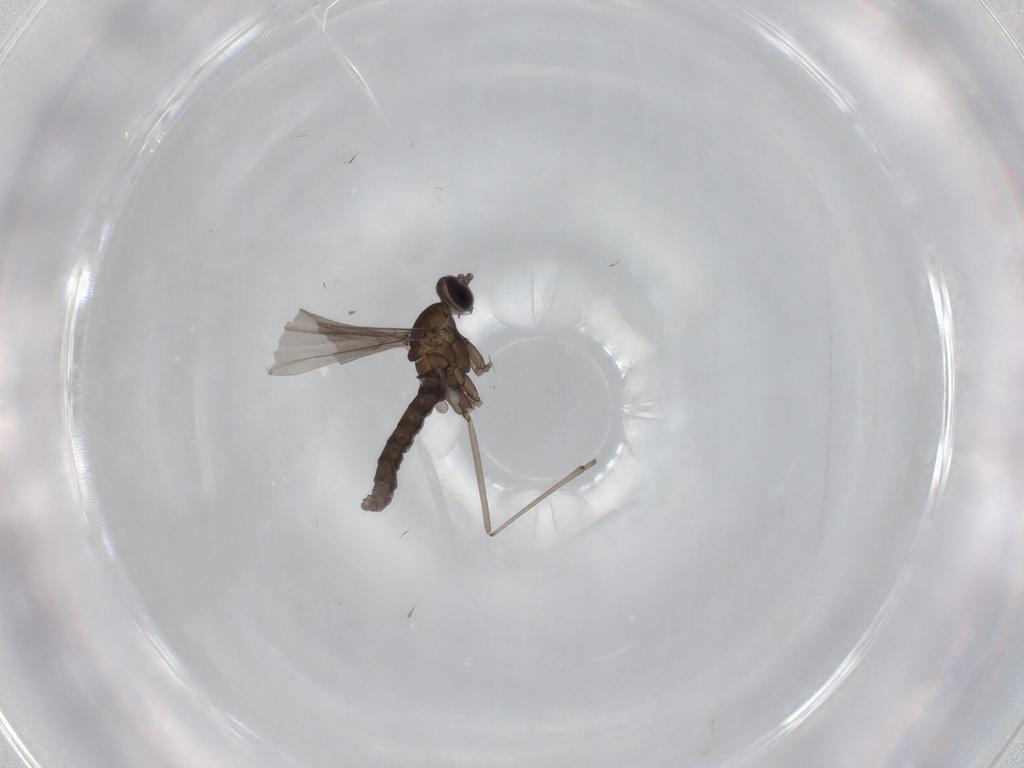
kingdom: Animalia
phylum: Arthropoda
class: Insecta
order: Diptera
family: Cecidomyiidae
